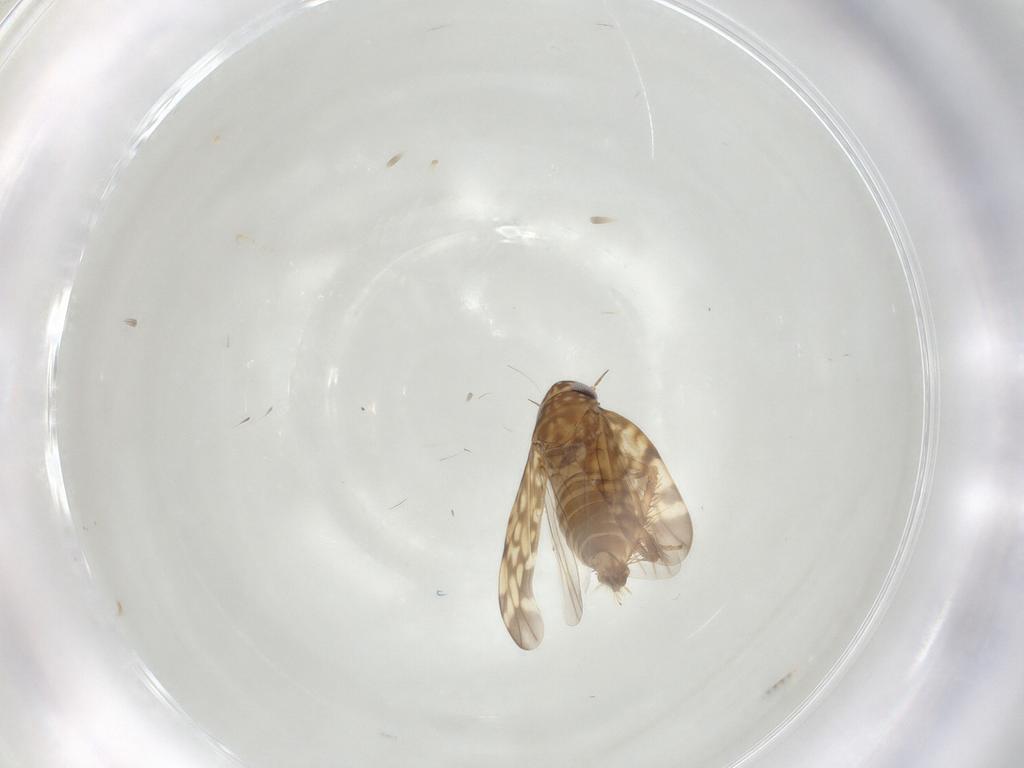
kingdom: Animalia
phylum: Arthropoda
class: Insecta
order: Hemiptera
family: Cicadellidae
